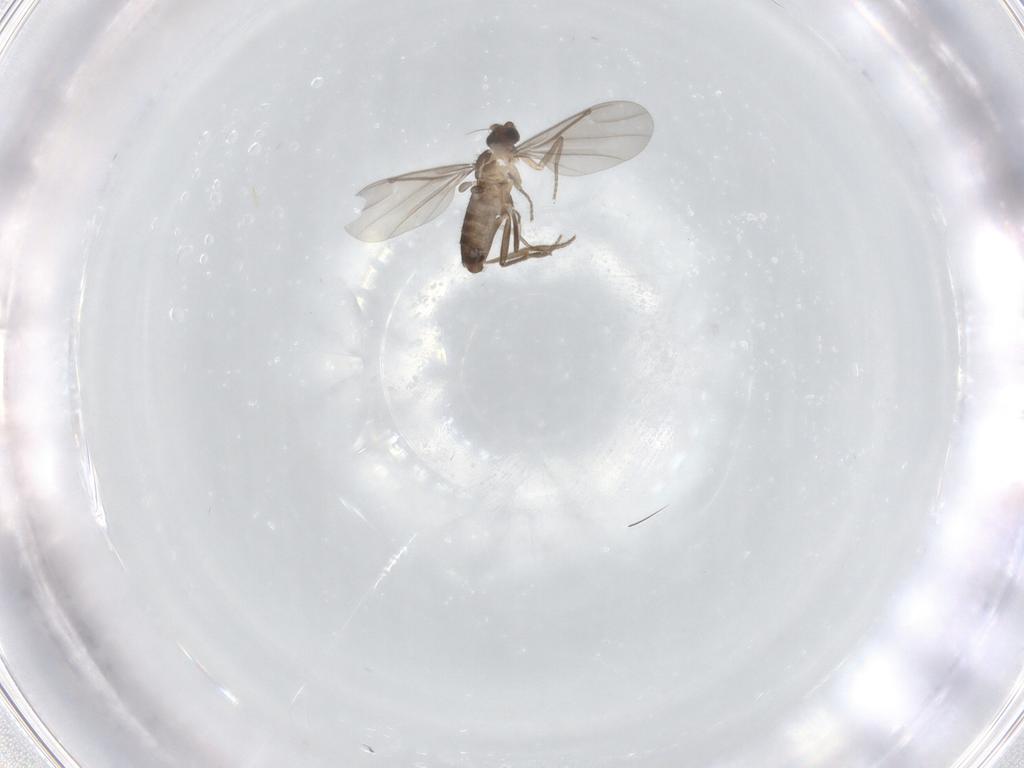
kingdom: Animalia
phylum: Arthropoda
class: Insecta
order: Diptera
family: Phoridae
